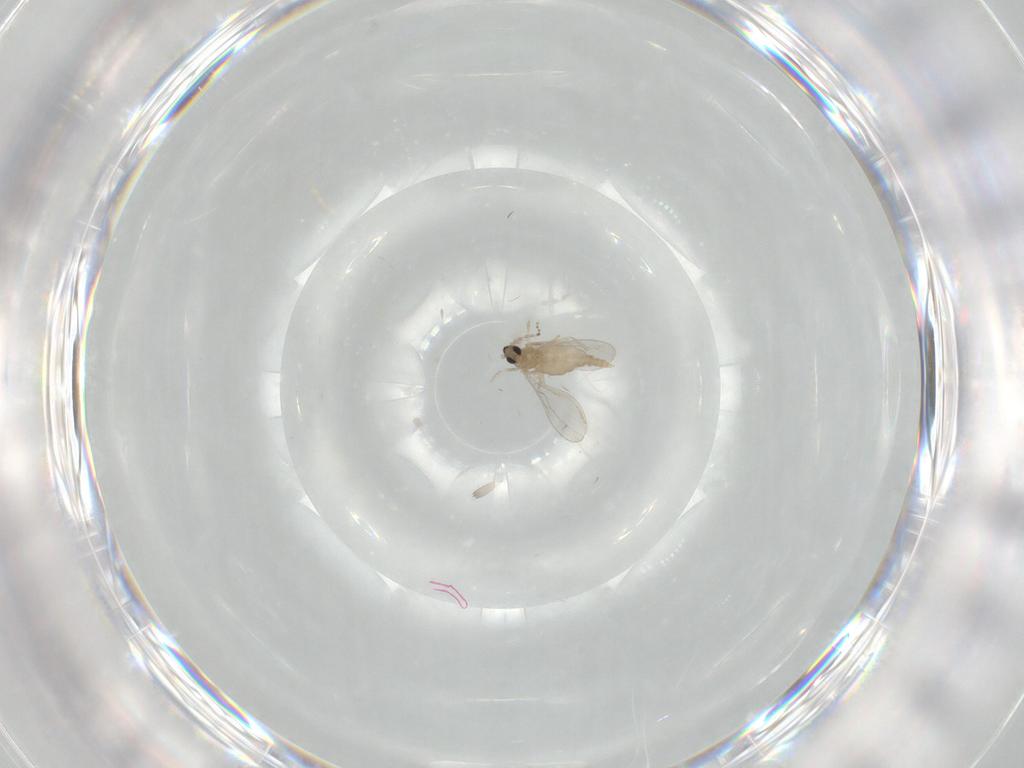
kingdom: Animalia
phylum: Arthropoda
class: Insecta
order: Diptera
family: Cecidomyiidae
